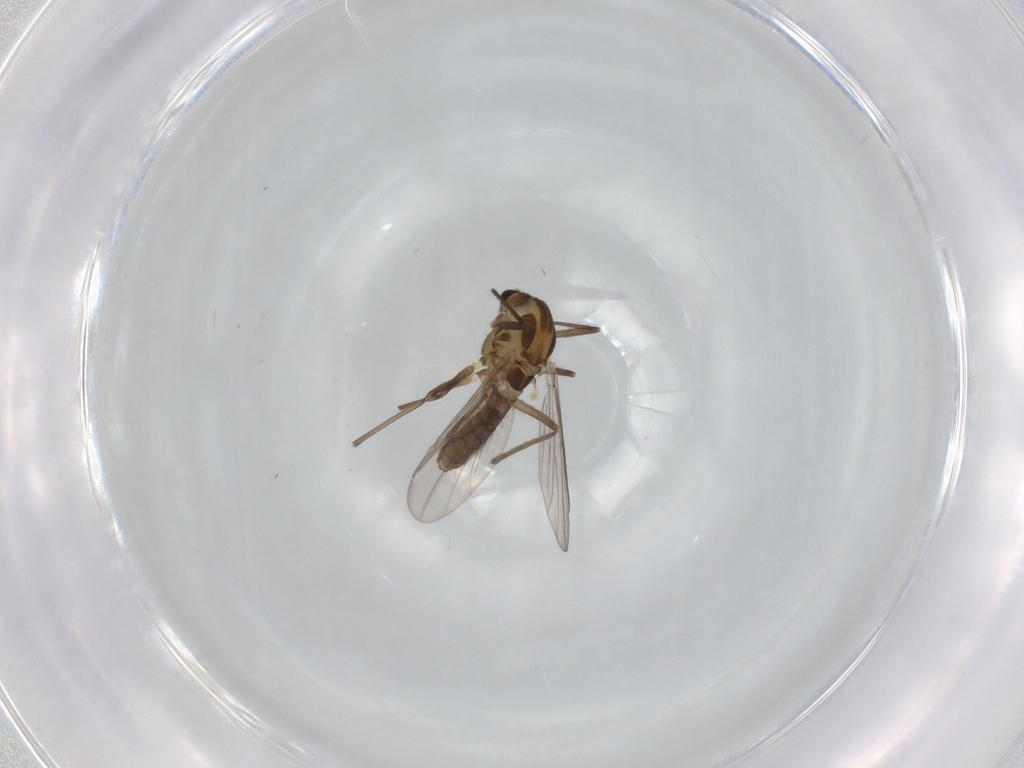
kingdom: Animalia
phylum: Arthropoda
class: Insecta
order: Diptera
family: Chironomidae
